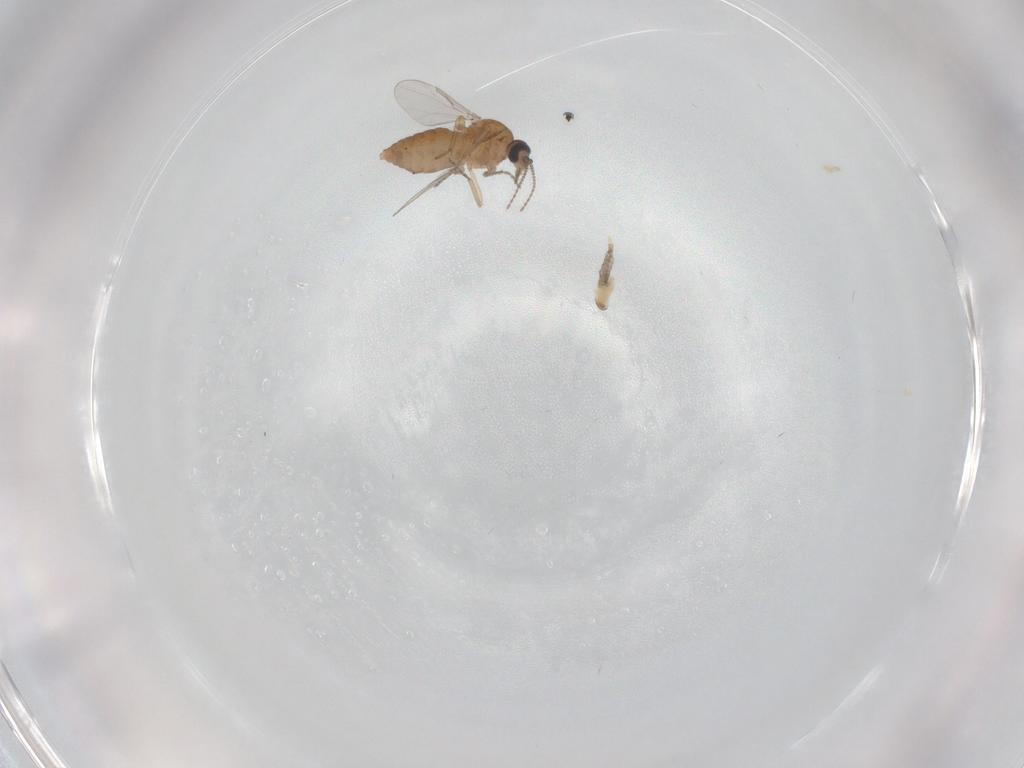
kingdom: Animalia
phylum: Arthropoda
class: Insecta
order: Diptera
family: Ceratopogonidae
